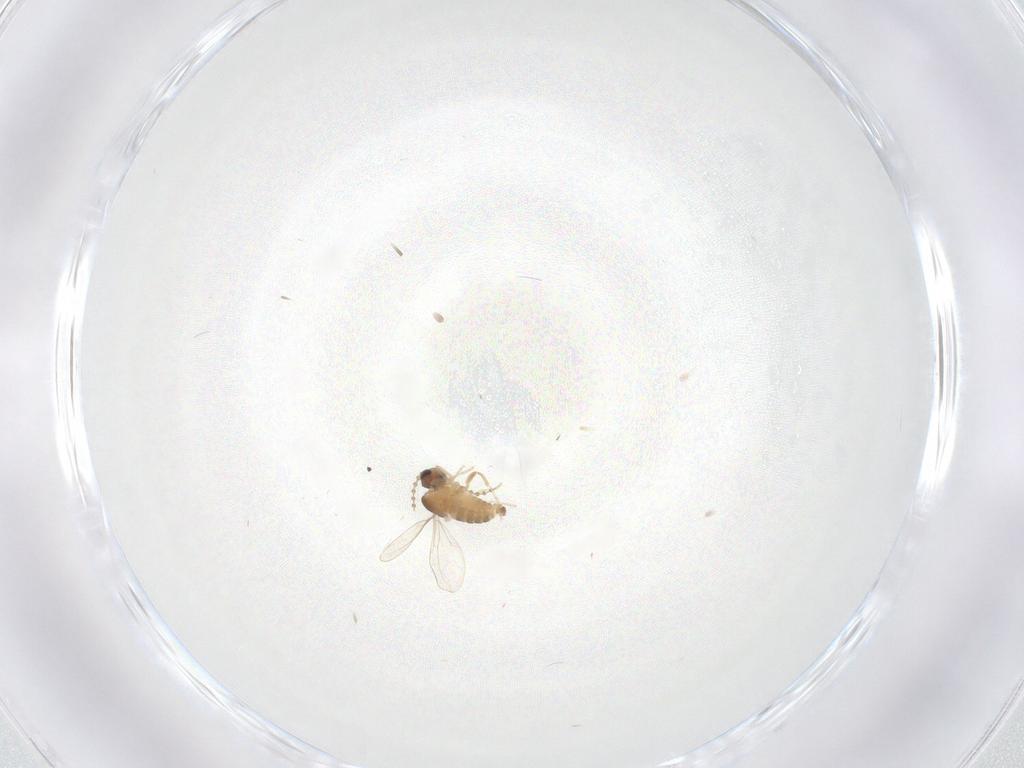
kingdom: Animalia
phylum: Arthropoda
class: Insecta
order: Diptera
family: Cecidomyiidae
